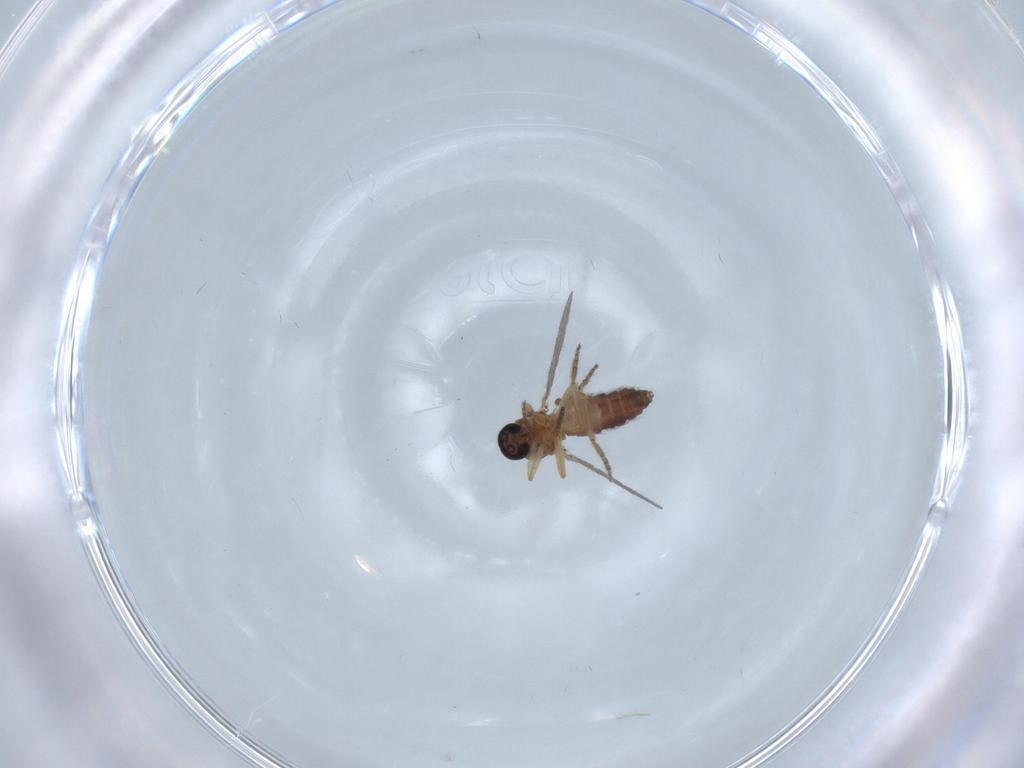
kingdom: Animalia
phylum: Arthropoda
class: Insecta
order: Diptera
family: Ceratopogonidae
